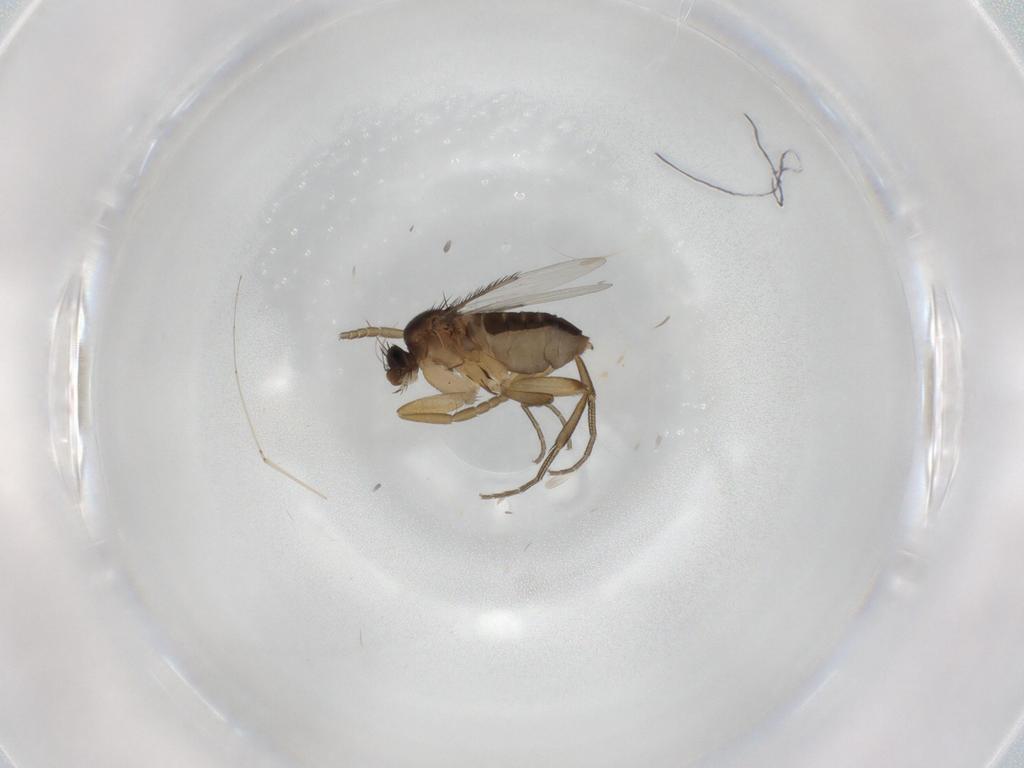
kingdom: Animalia
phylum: Arthropoda
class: Insecta
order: Diptera
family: Phoridae
